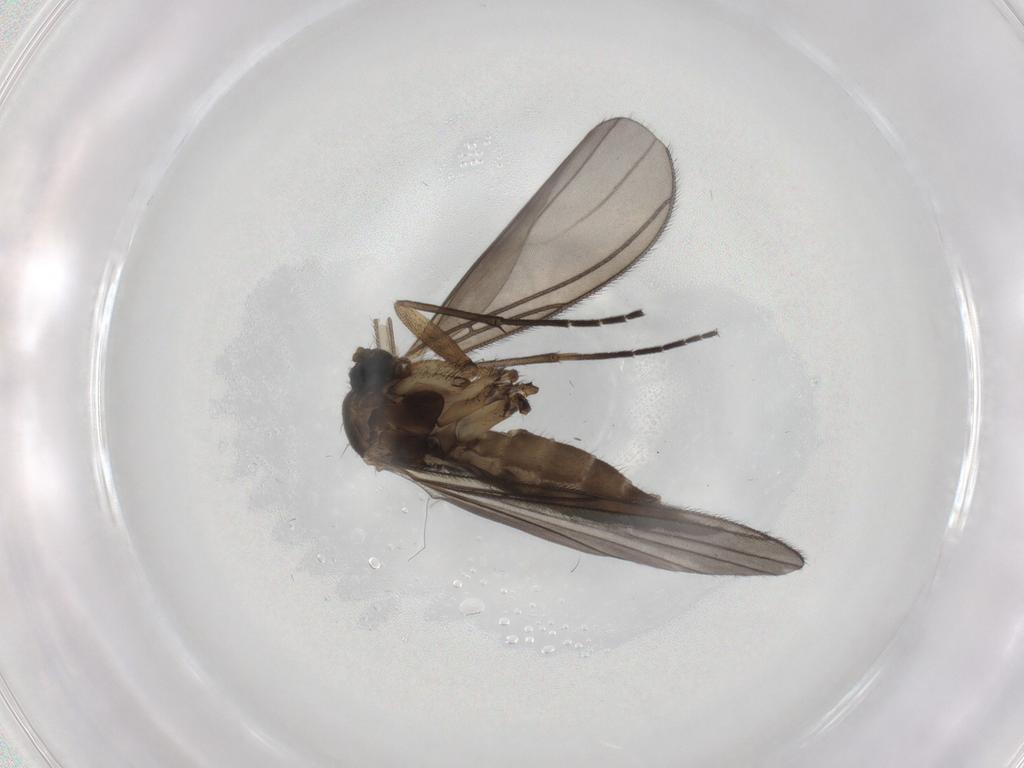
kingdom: Animalia
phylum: Arthropoda
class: Insecta
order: Diptera
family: Sciaridae
